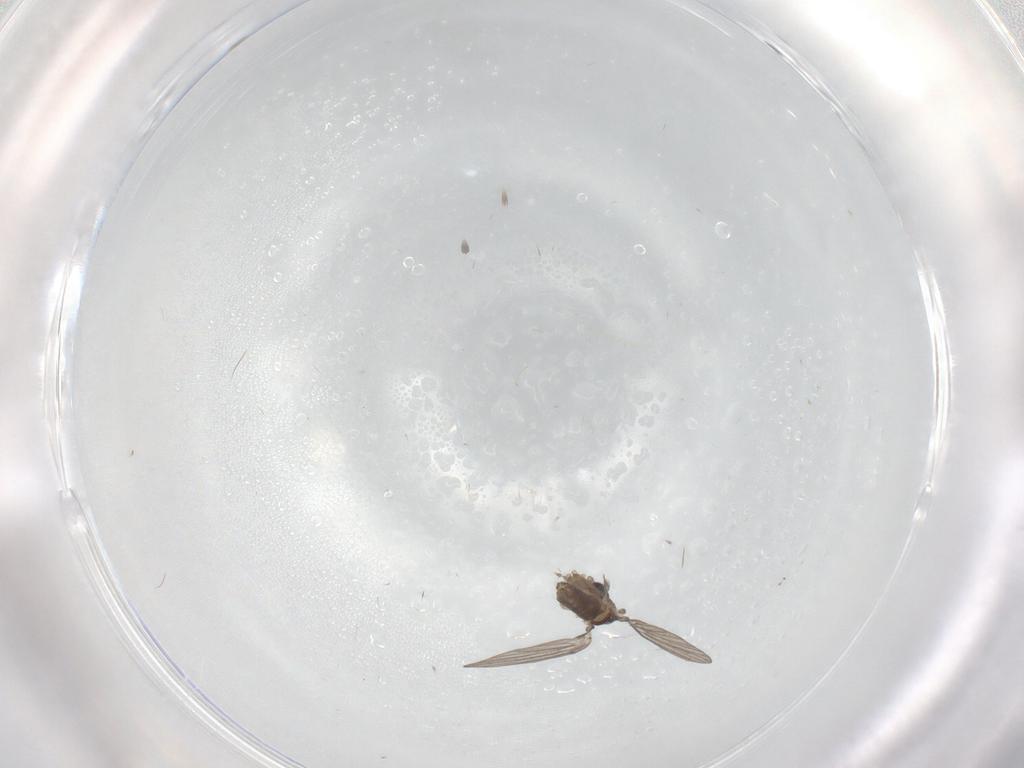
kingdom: Animalia
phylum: Arthropoda
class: Insecta
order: Diptera
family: Cecidomyiidae
